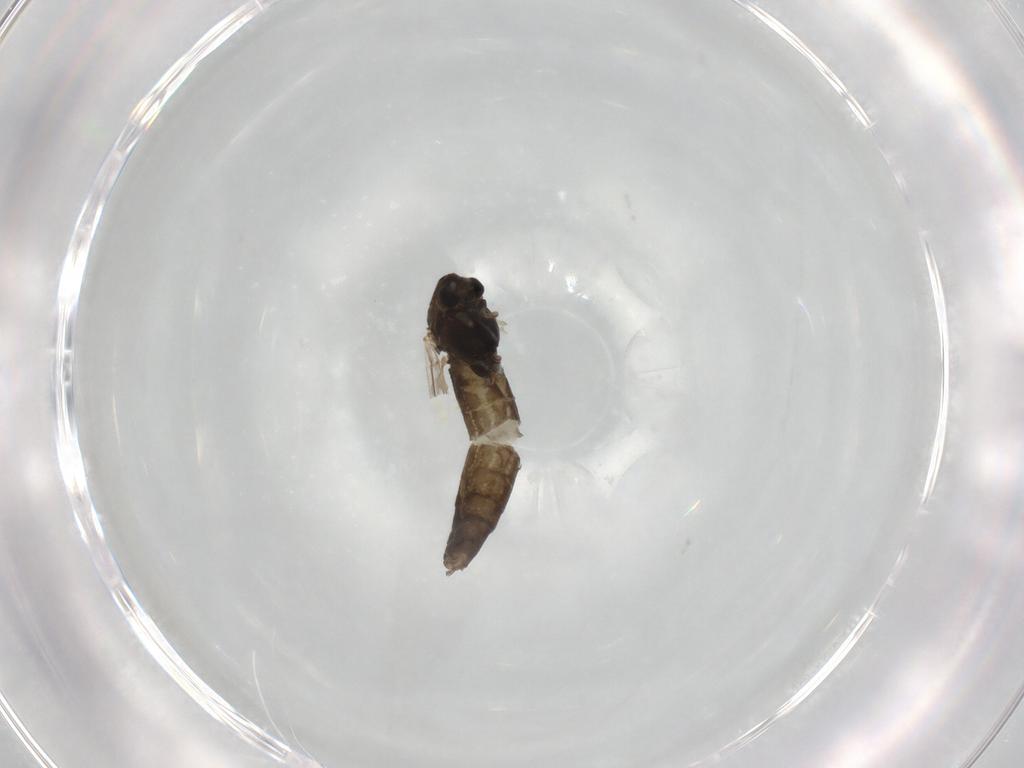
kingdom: Animalia
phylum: Arthropoda
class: Insecta
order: Diptera
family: Chironomidae
